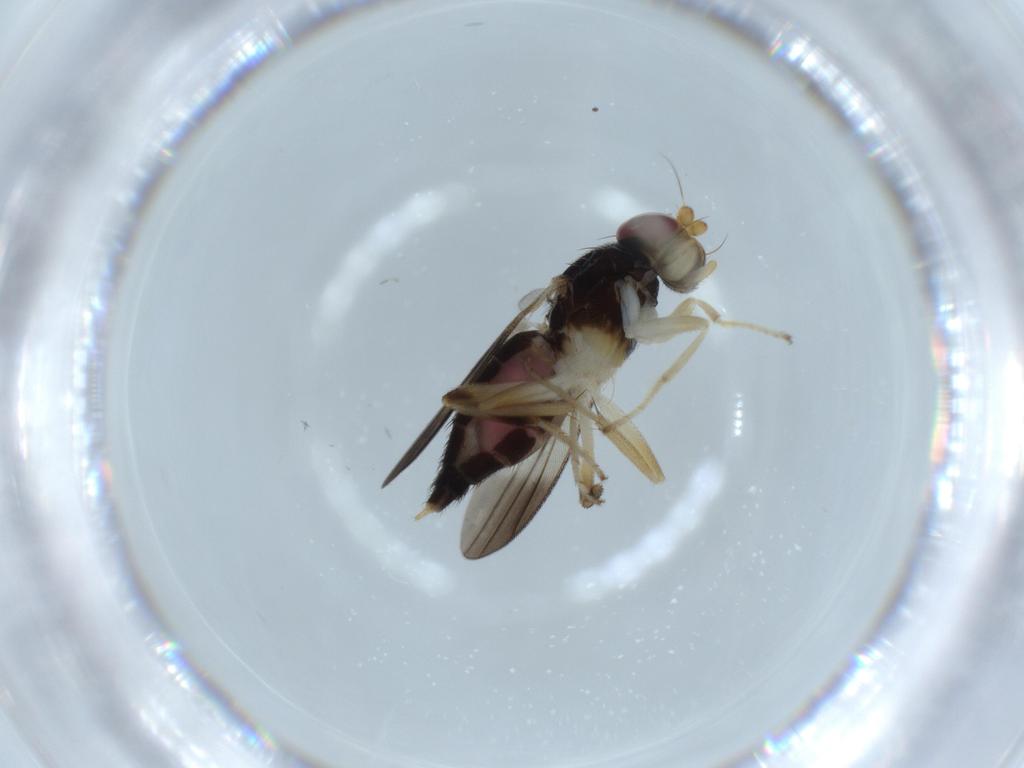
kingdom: Animalia
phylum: Arthropoda
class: Insecta
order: Diptera
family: Clusiidae
